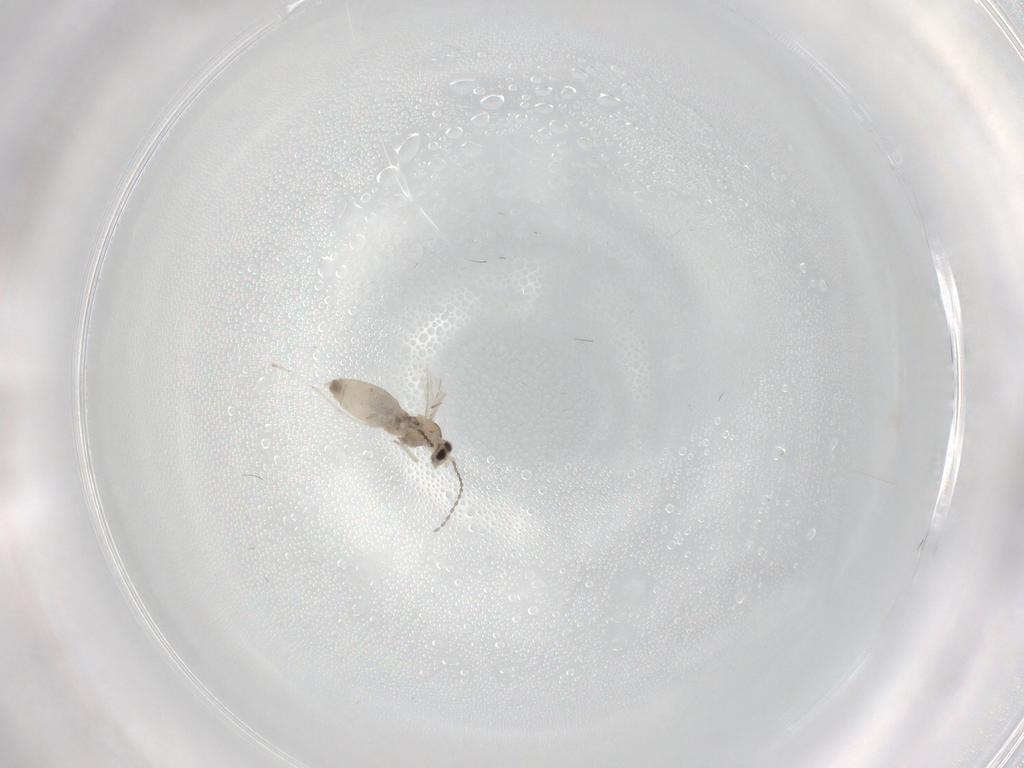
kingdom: Animalia
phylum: Arthropoda
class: Insecta
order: Diptera
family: Cecidomyiidae
